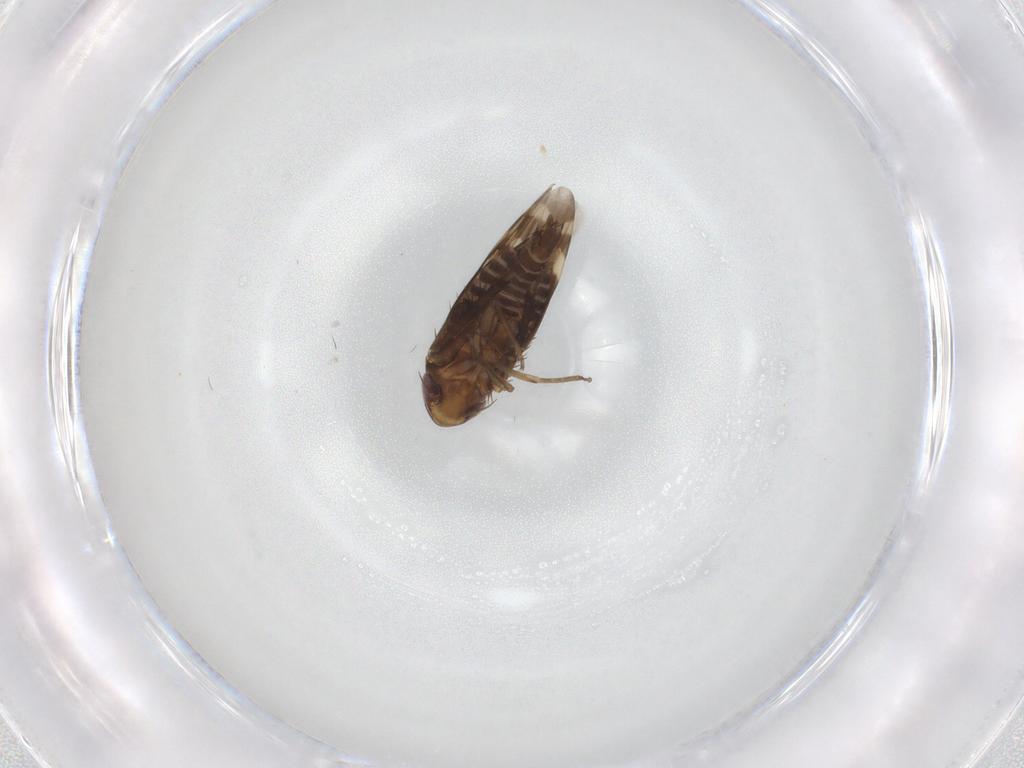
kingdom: Animalia
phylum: Arthropoda
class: Insecta
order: Hemiptera
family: Cicadellidae
